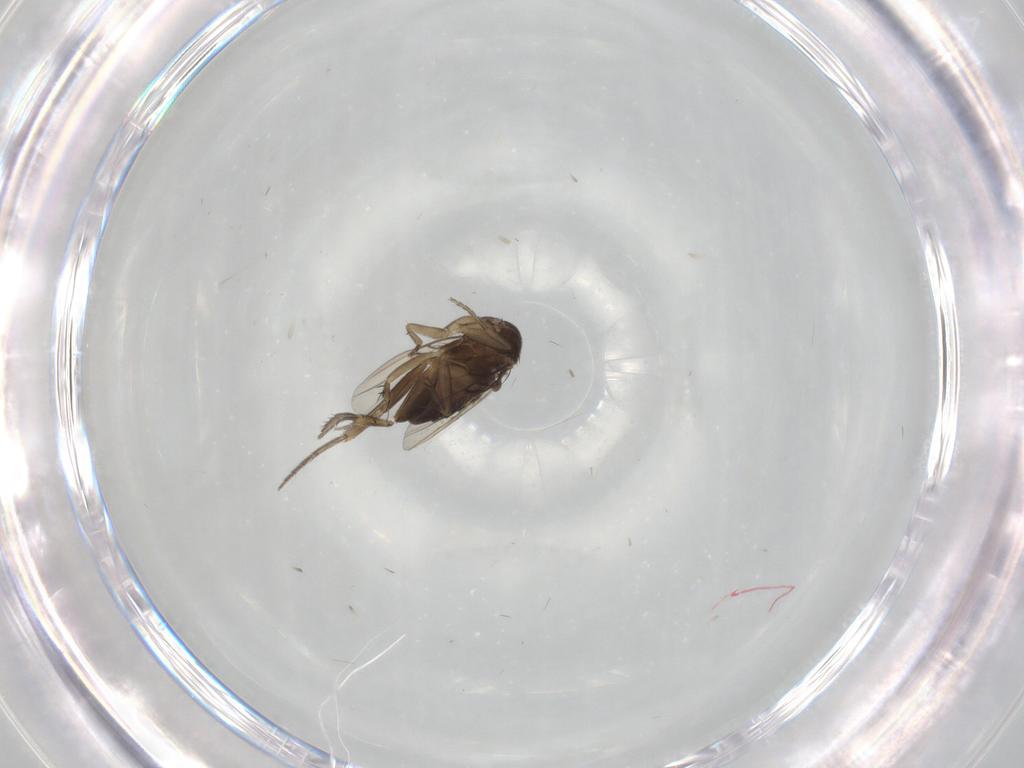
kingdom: Animalia
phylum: Arthropoda
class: Insecta
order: Diptera
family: Phoridae
